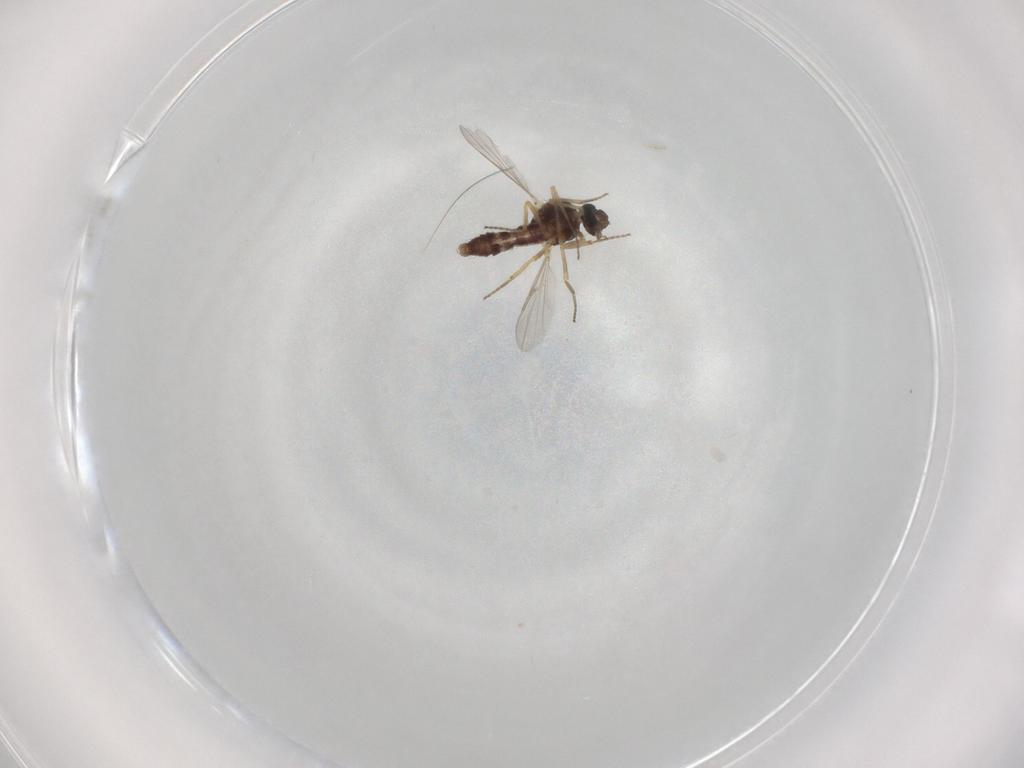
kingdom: Animalia
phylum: Arthropoda
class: Insecta
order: Diptera
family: Ceratopogonidae
